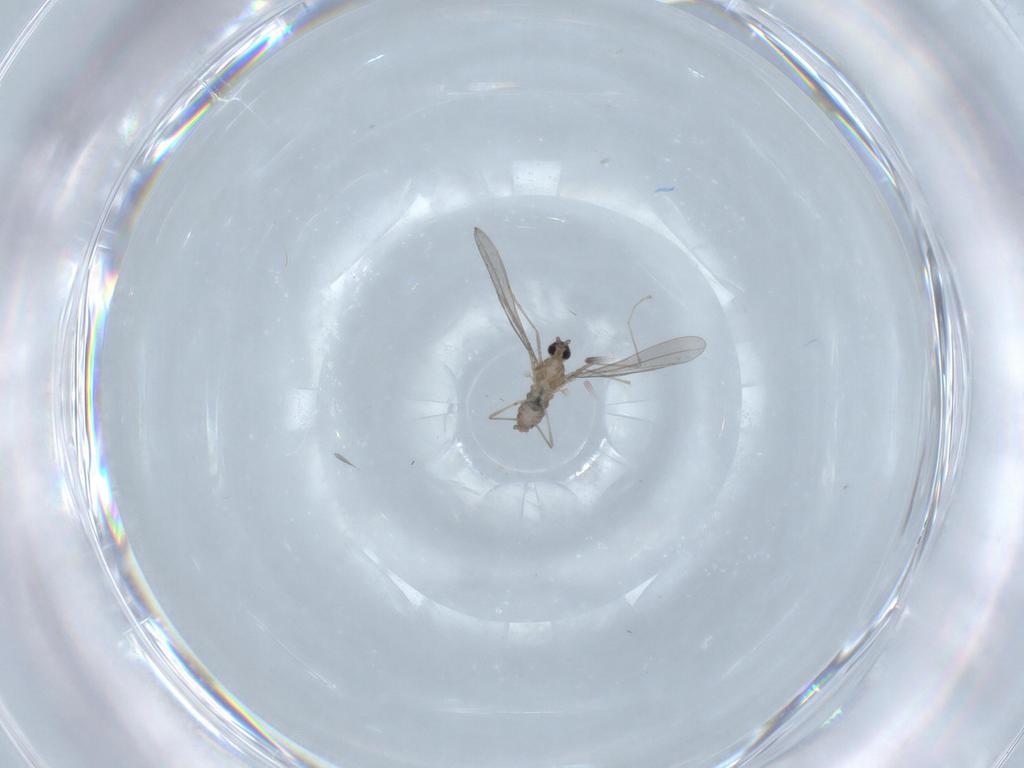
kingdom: Animalia
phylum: Arthropoda
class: Insecta
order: Diptera
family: Cecidomyiidae
